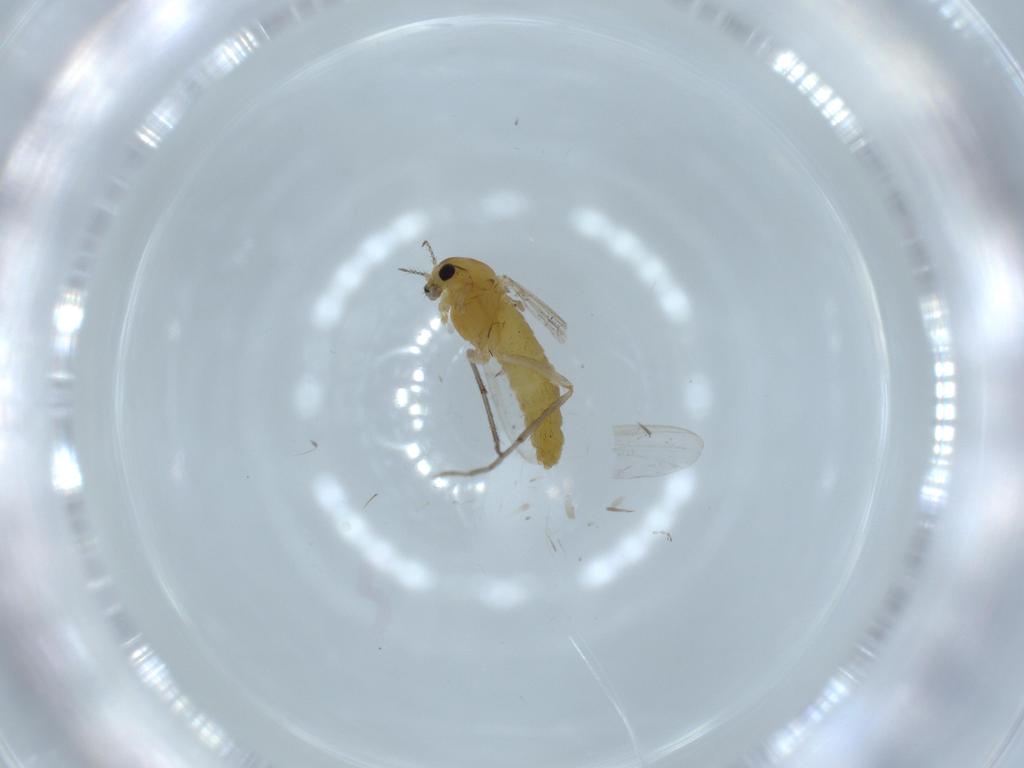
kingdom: Animalia
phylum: Arthropoda
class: Insecta
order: Diptera
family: Chironomidae
